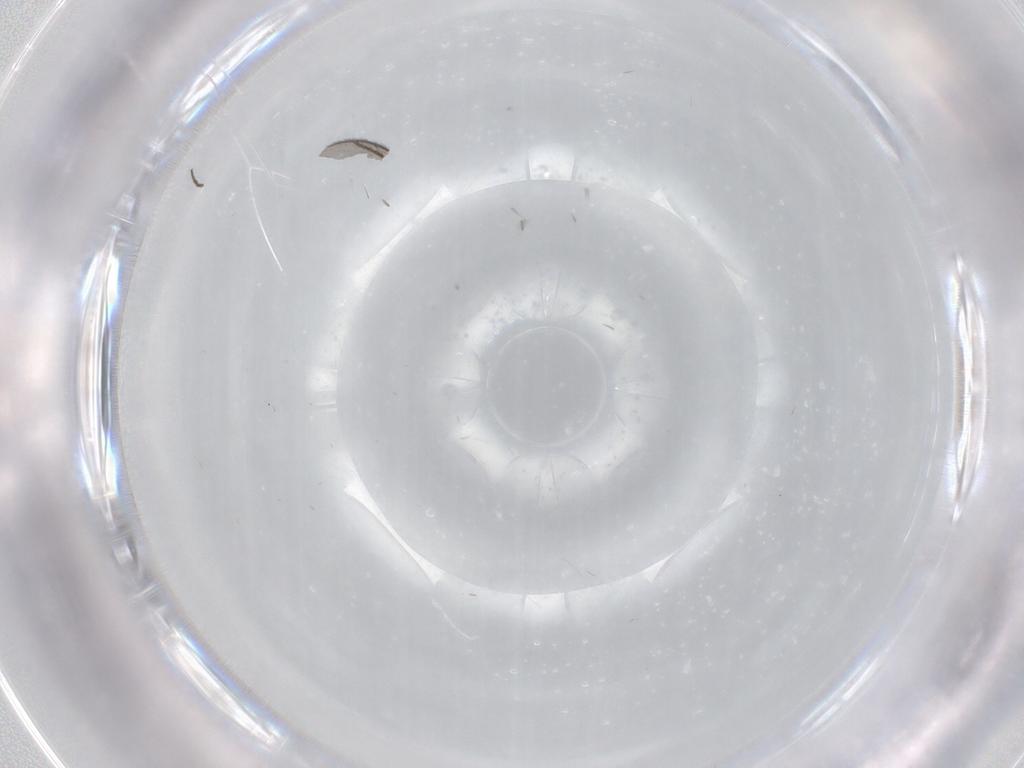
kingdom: Animalia
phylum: Arthropoda
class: Insecta
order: Diptera
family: Chironomidae
